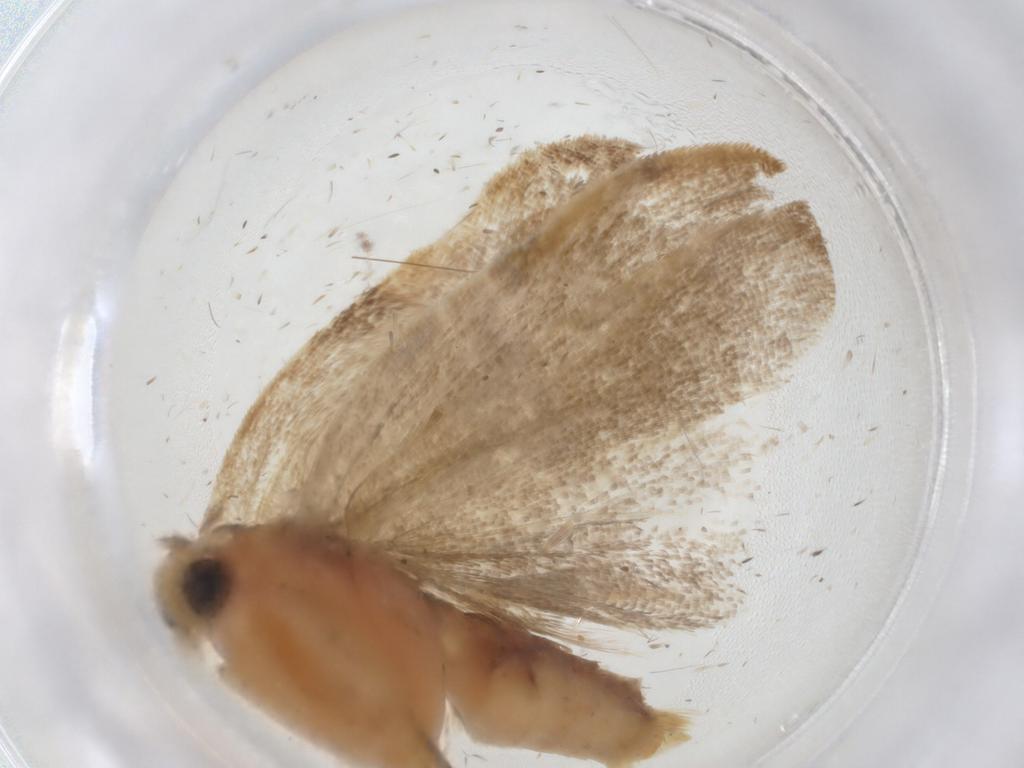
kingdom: Animalia
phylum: Arthropoda
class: Insecta
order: Lepidoptera
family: Depressariidae
